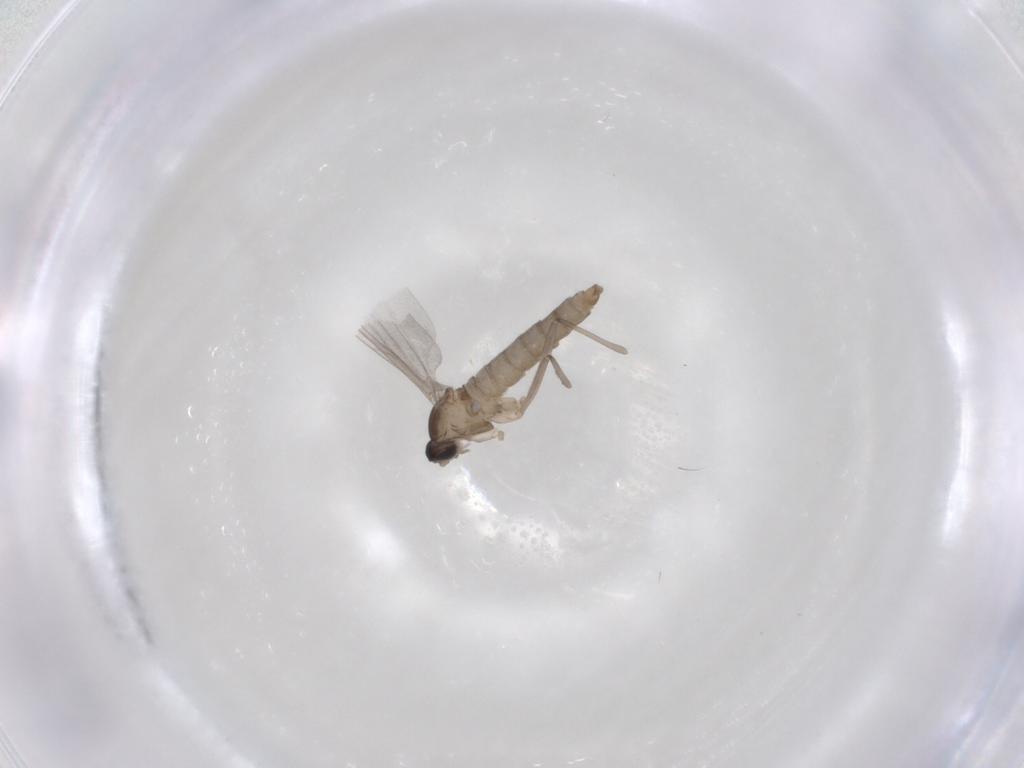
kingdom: Animalia
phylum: Arthropoda
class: Insecta
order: Diptera
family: Cecidomyiidae
